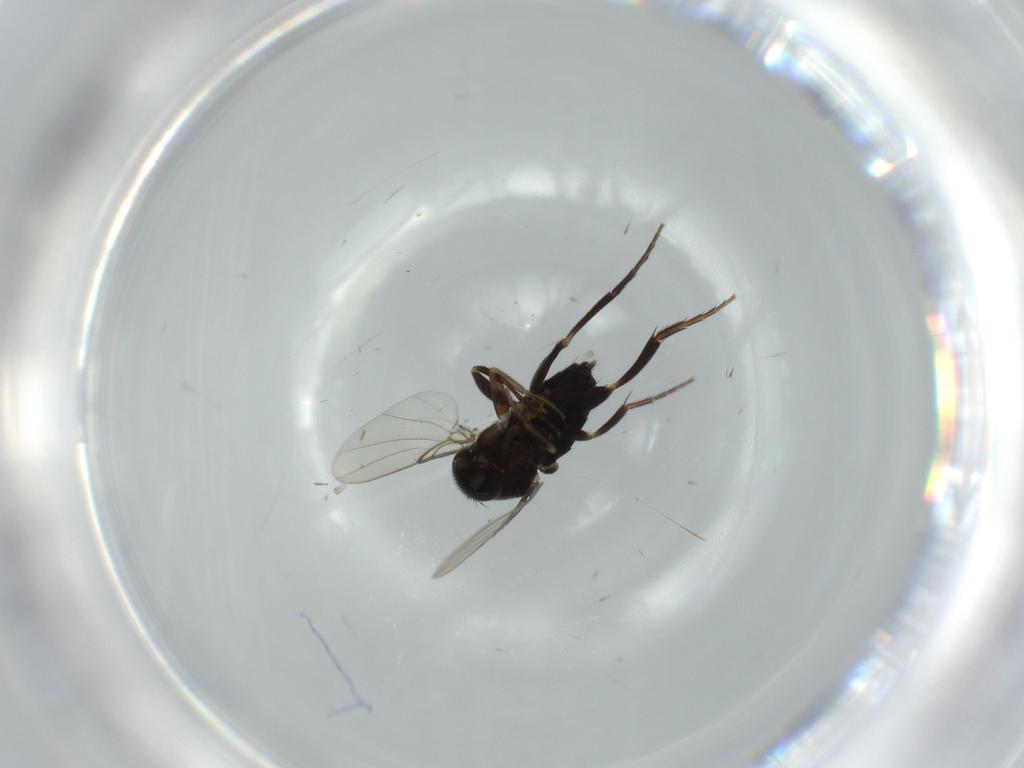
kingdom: Animalia
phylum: Arthropoda
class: Insecta
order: Diptera
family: Phoridae
